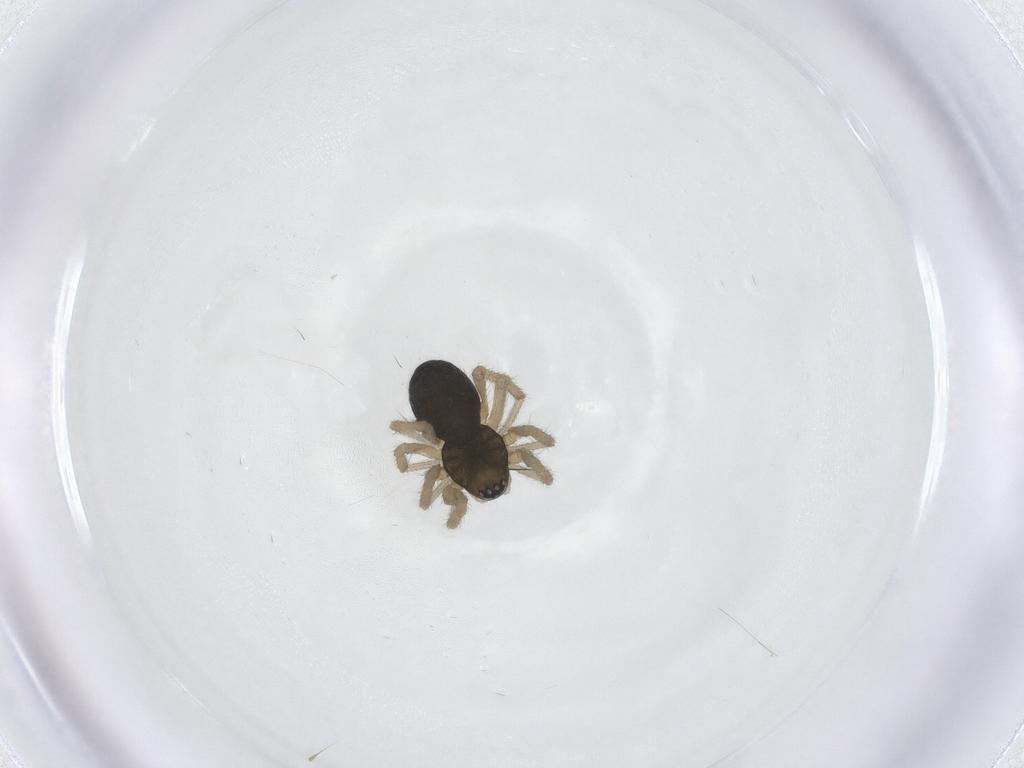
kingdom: Animalia
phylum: Arthropoda
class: Arachnida
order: Araneae
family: Linyphiidae
